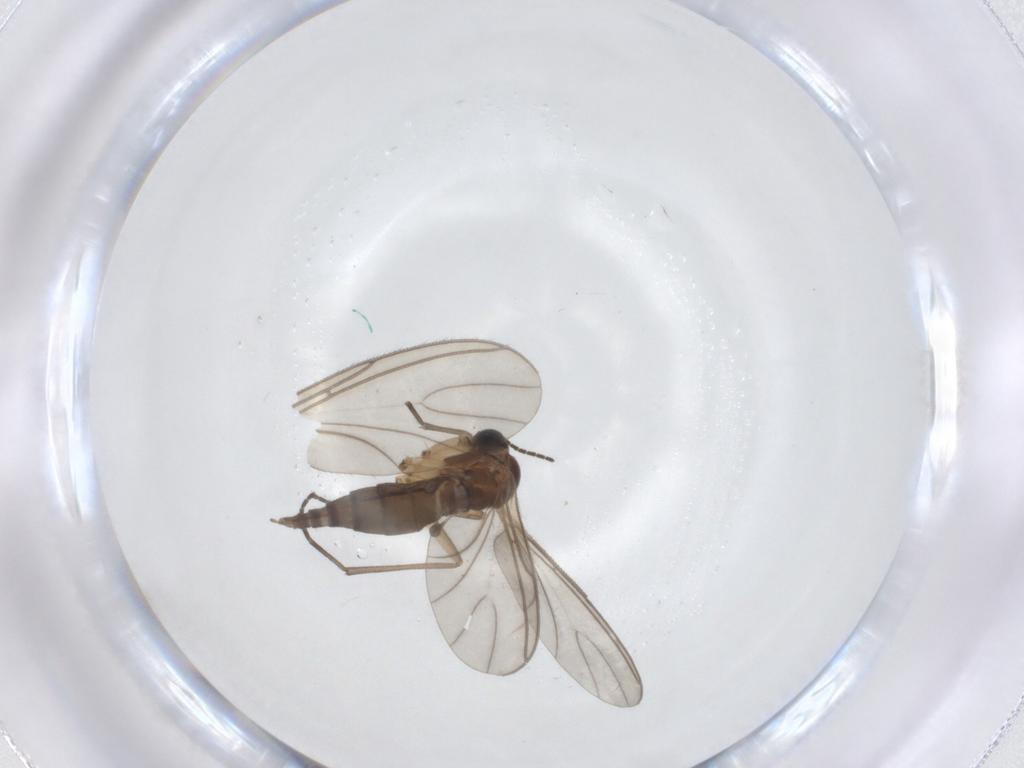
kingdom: Animalia
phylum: Arthropoda
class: Insecta
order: Diptera
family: Sciaridae
